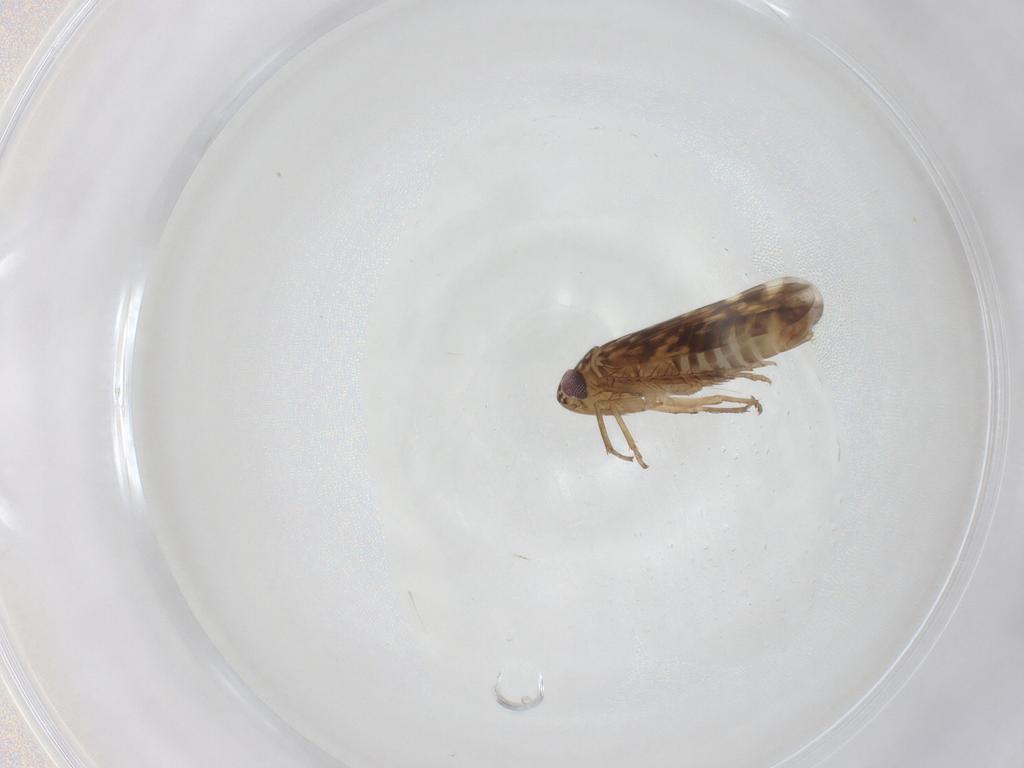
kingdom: Animalia
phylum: Arthropoda
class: Insecta
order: Hemiptera
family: Cicadellidae
